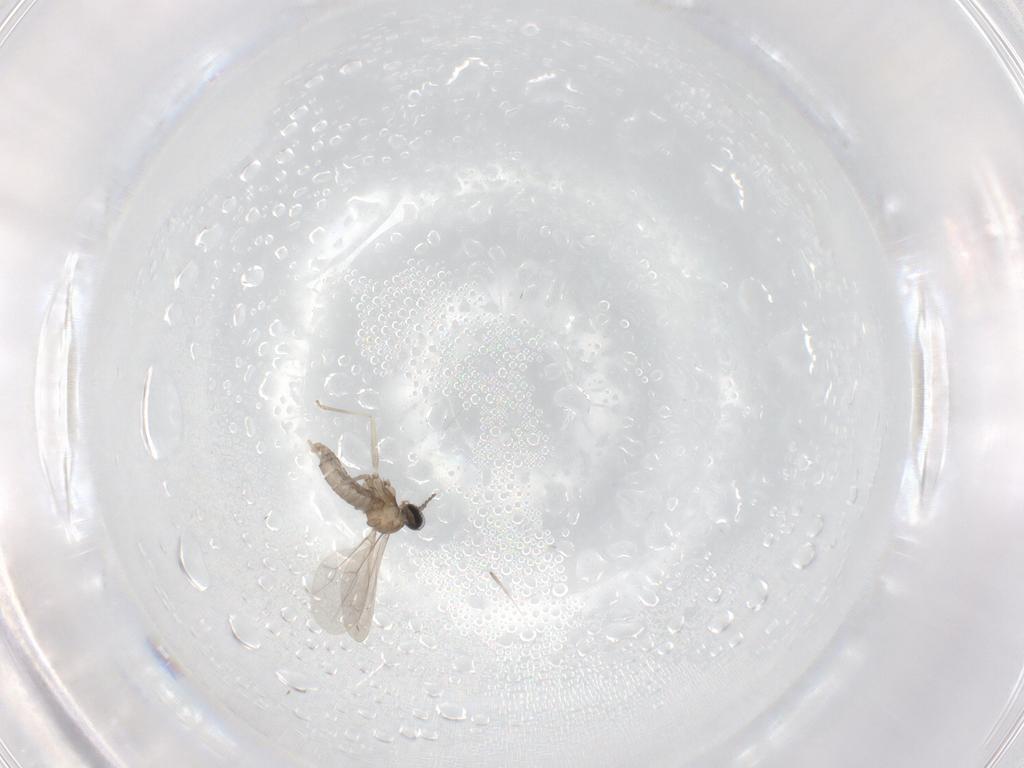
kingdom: Animalia
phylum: Arthropoda
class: Insecta
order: Diptera
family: Cecidomyiidae
